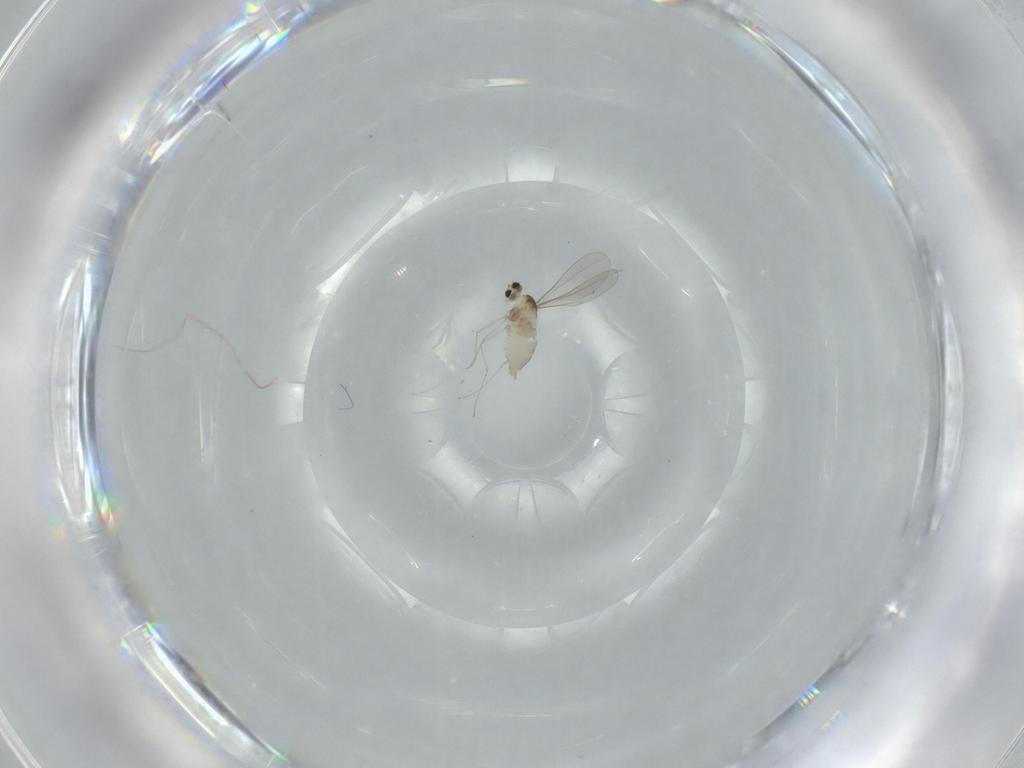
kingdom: Animalia
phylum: Arthropoda
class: Insecta
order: Diptera
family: Cecidomyiidae
